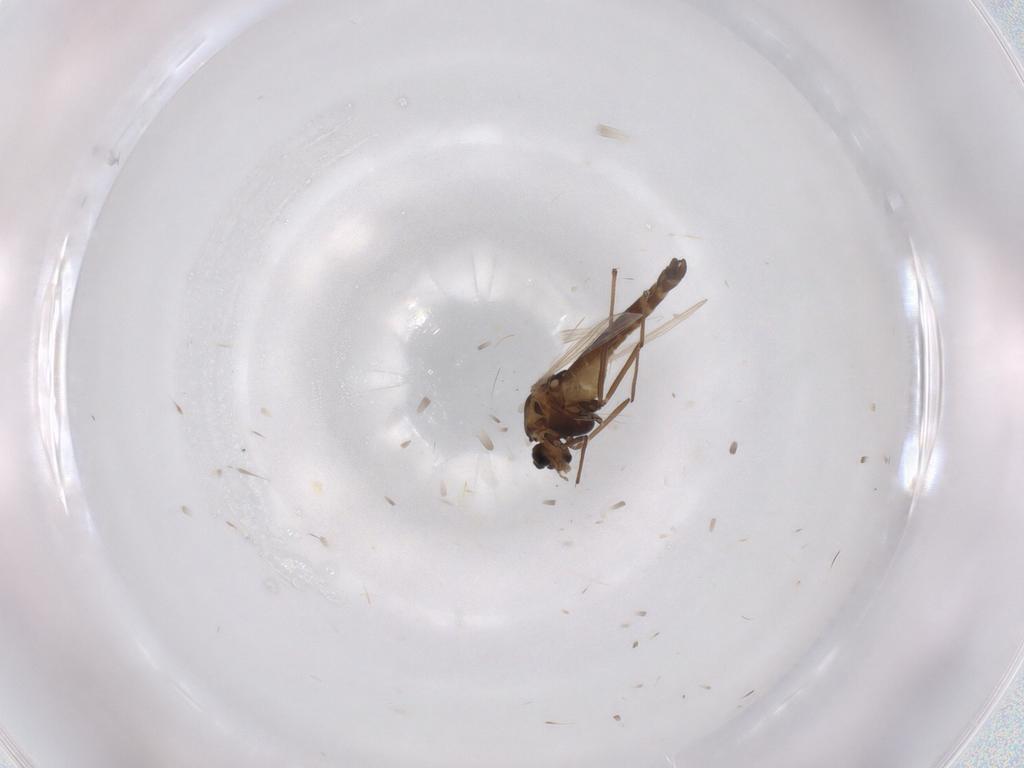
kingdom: Animalia
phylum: Arthropoda
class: Insecta
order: Diptera
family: Chironomidae
